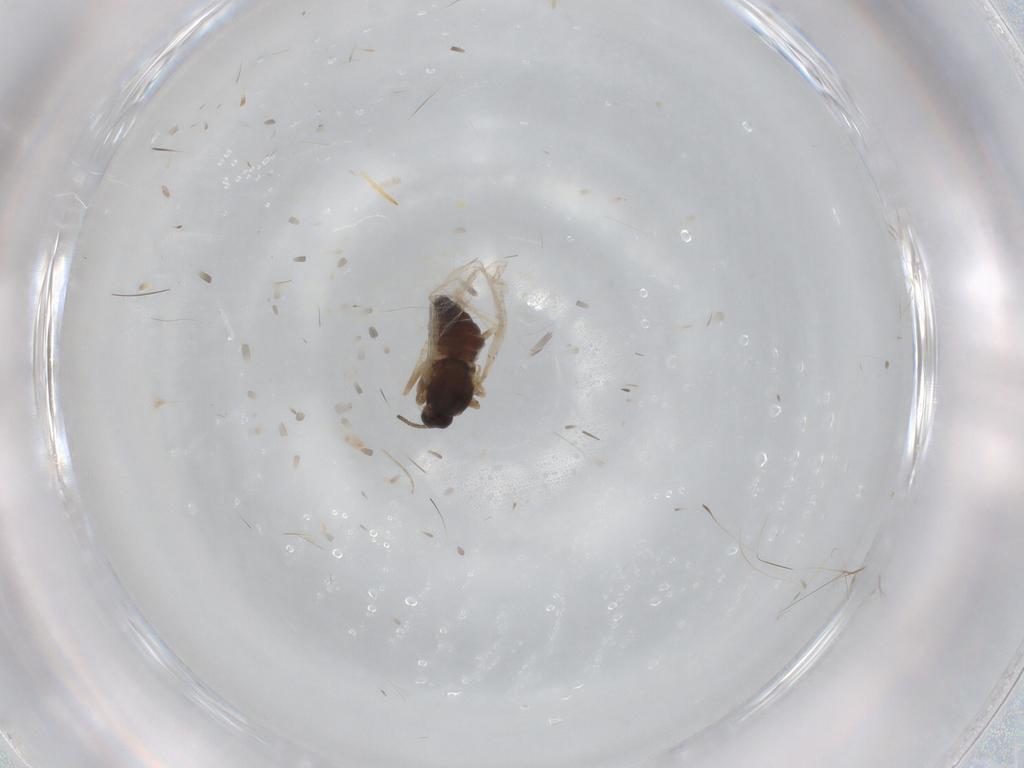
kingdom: Animalia
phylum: Arthropoda
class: Insecta
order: Diptera
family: Cecidomyiidae
